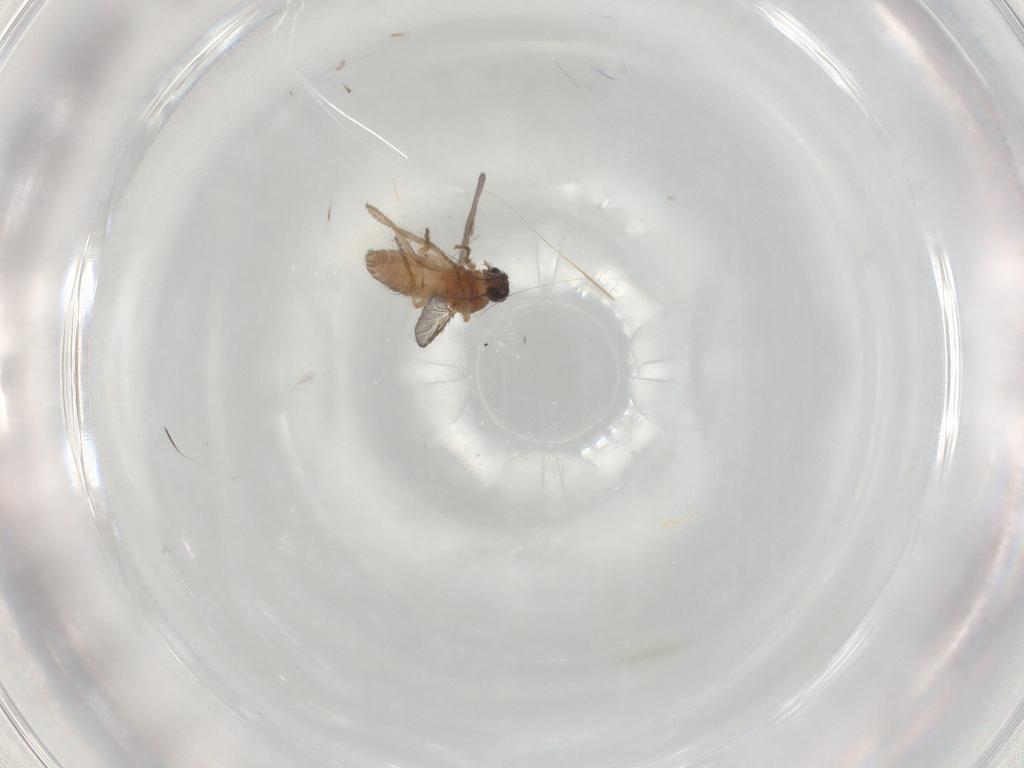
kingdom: Animalia
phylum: Arthropoda
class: Insecta
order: Diptera
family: Ceratopogonidae
